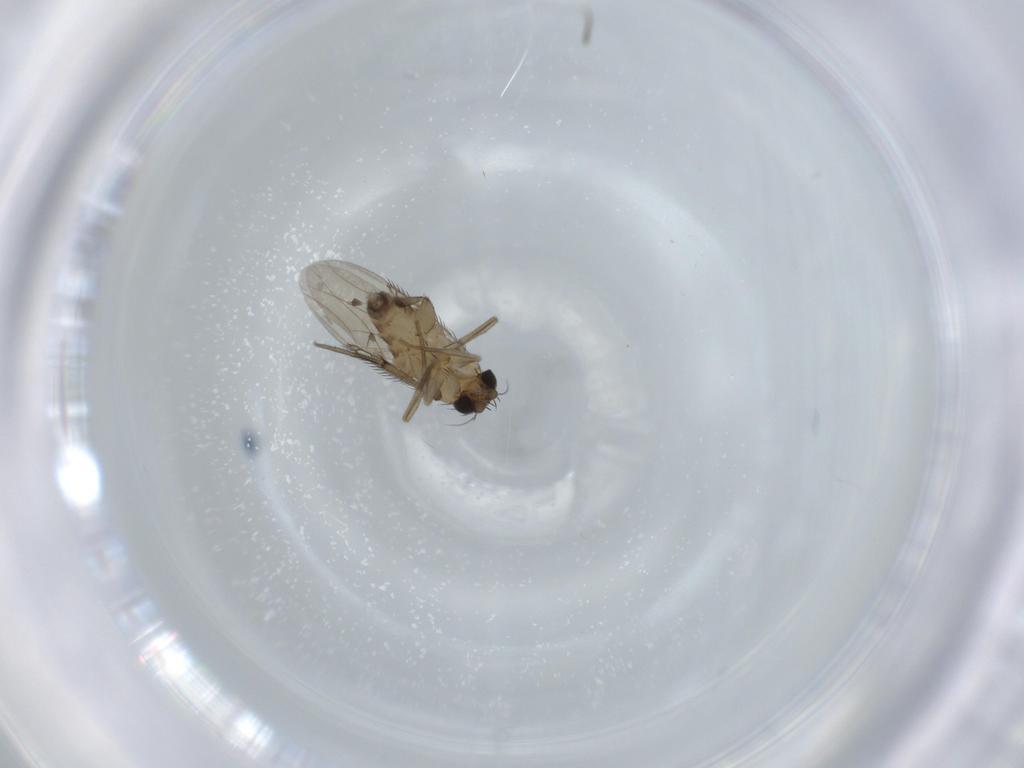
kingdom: Animalia
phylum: Arthropoda
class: Insecta
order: Diptera
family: Phoridae
